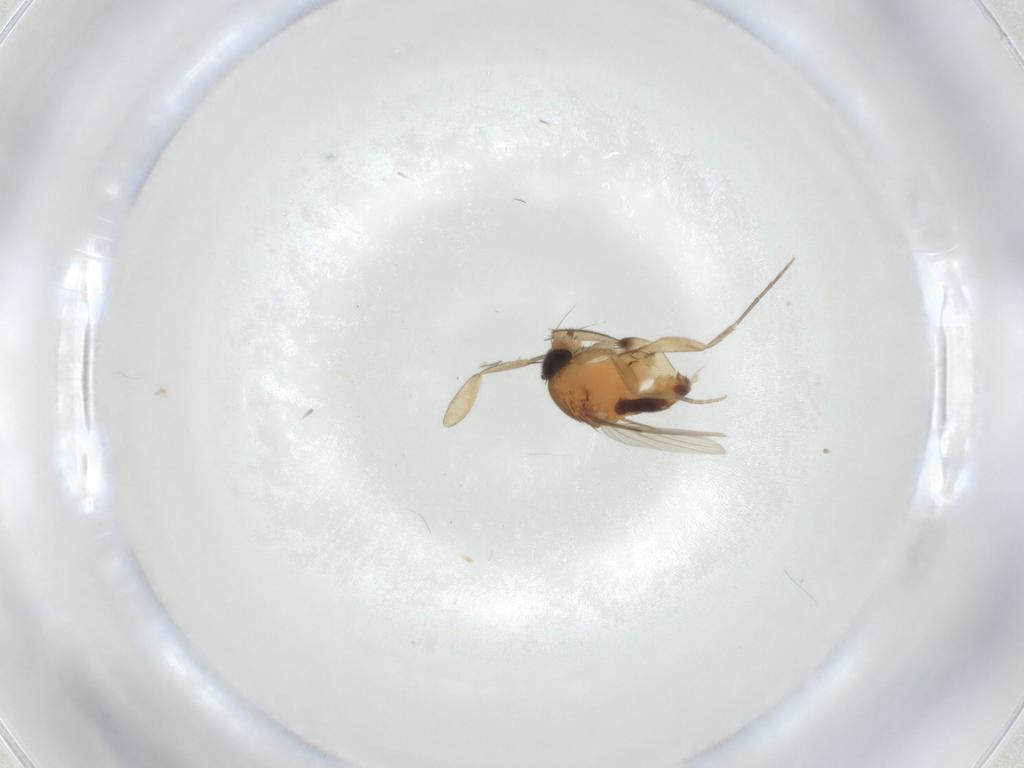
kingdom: Animalia
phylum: Arthropoda
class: Insecta
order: Diptera
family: Phoridae
